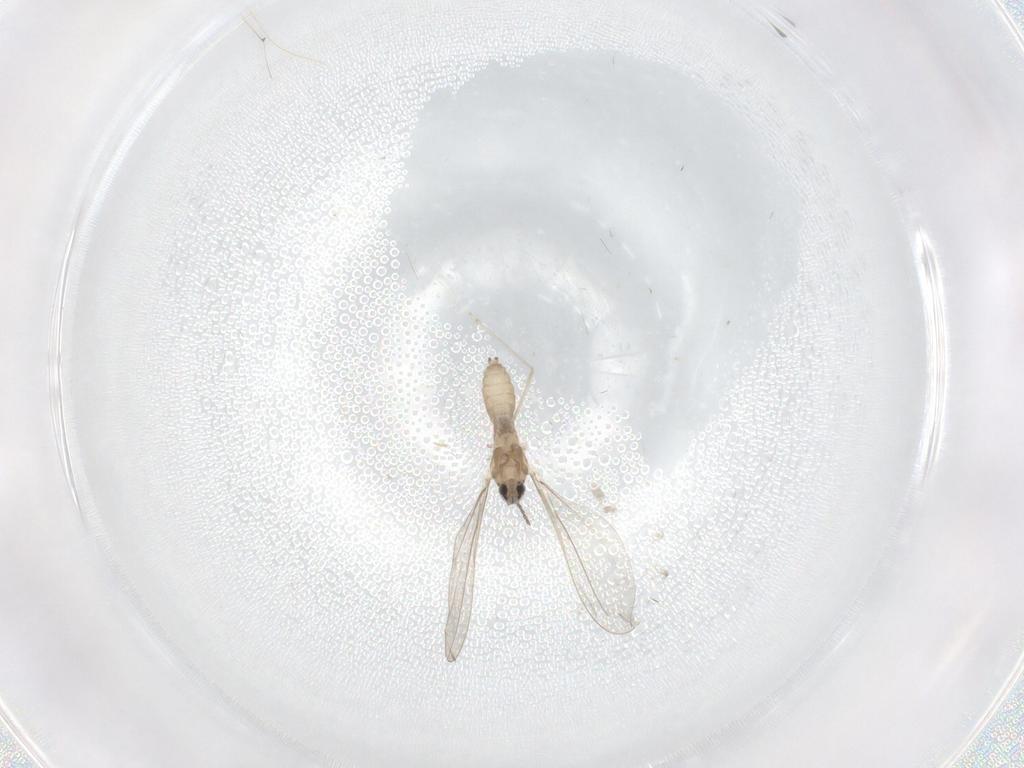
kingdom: Animalia
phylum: Arthropoda
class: Insecta
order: Diptera
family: Cecidomyiidae
